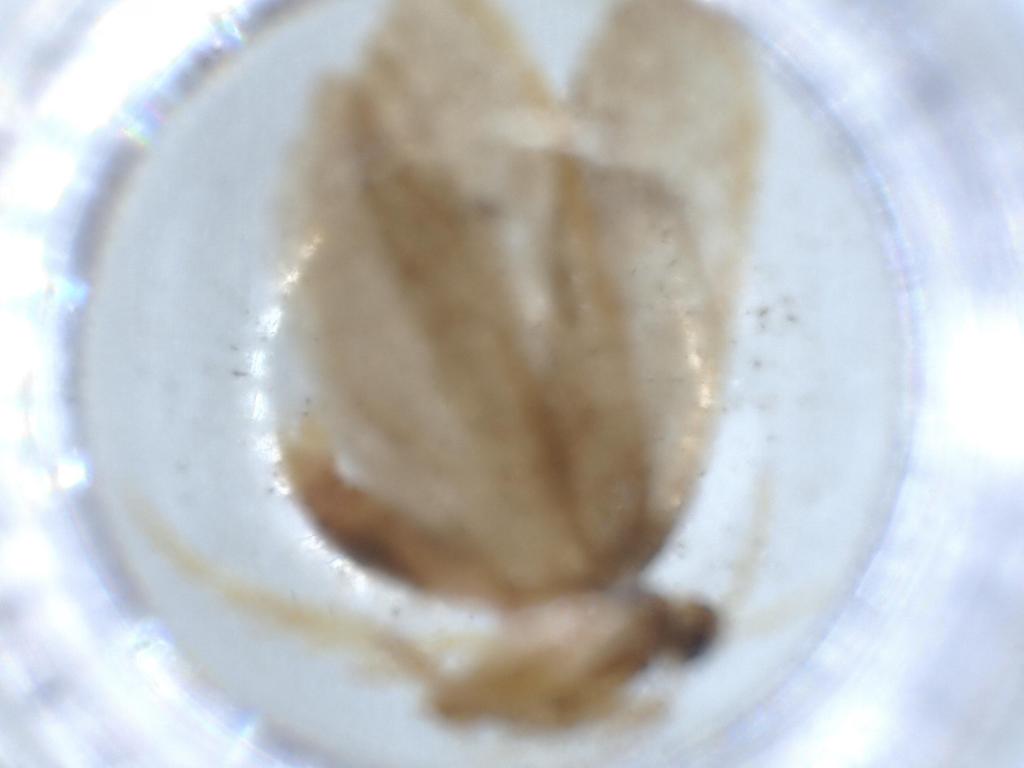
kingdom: Animalia
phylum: Arthropoda
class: Insecta
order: Lepidoptera
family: Lecithoceridae
